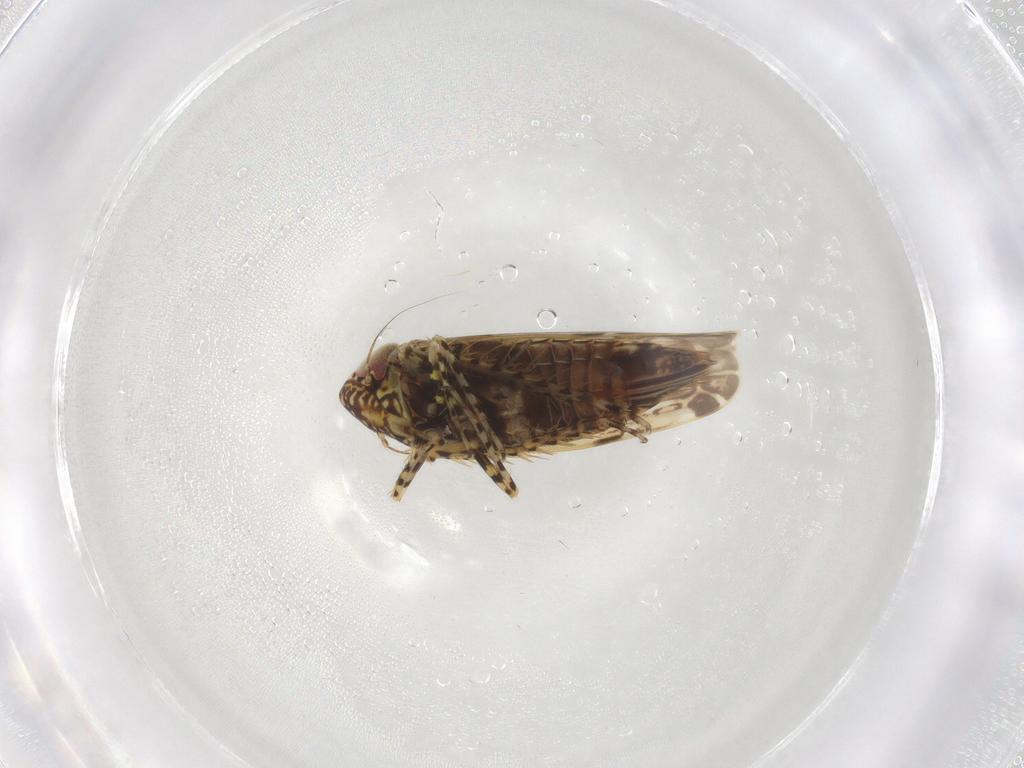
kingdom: Animalia
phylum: Arthropoda
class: Insecta
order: Hemiptera
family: Cicadellidae
